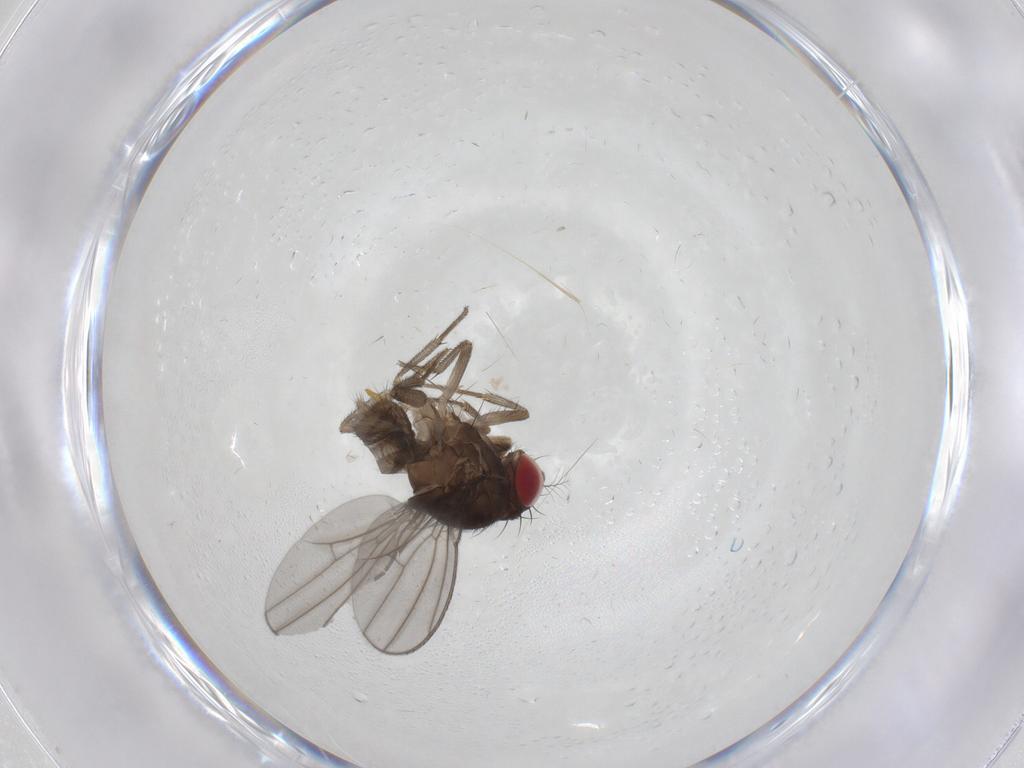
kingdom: Animalia
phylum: Arthropoda
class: Insecta
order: Diptera
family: Drosophilidae
